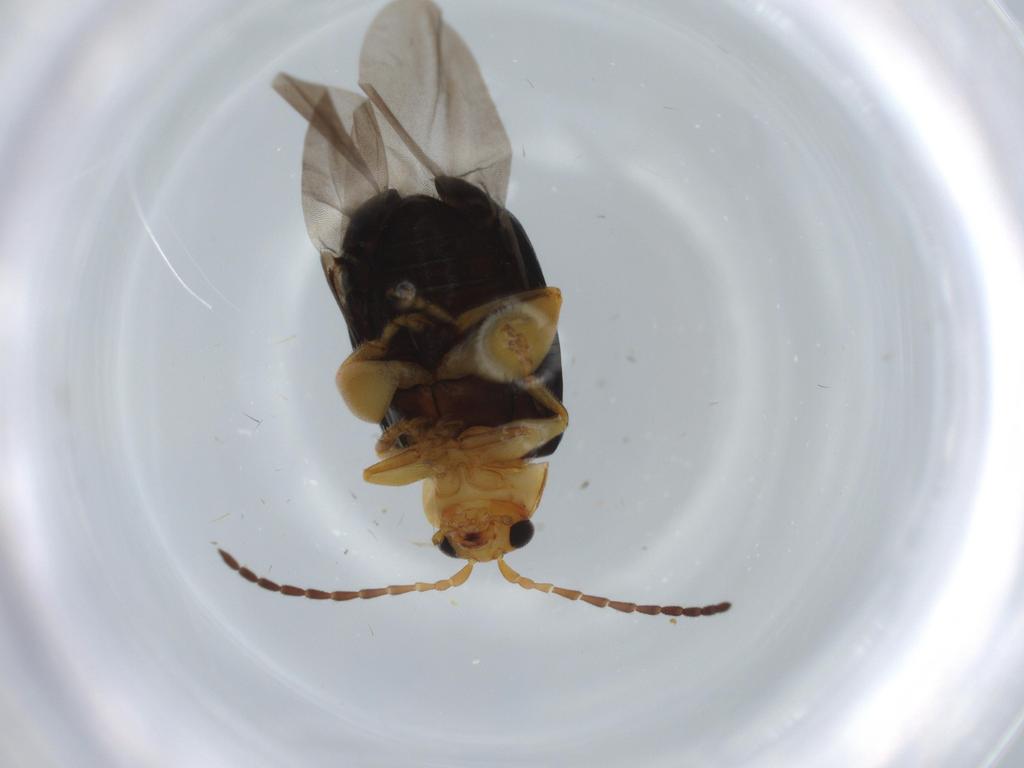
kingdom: Animalia
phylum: Arthropoda
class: Insecta
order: Coleoptera
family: Chrysomelidae
